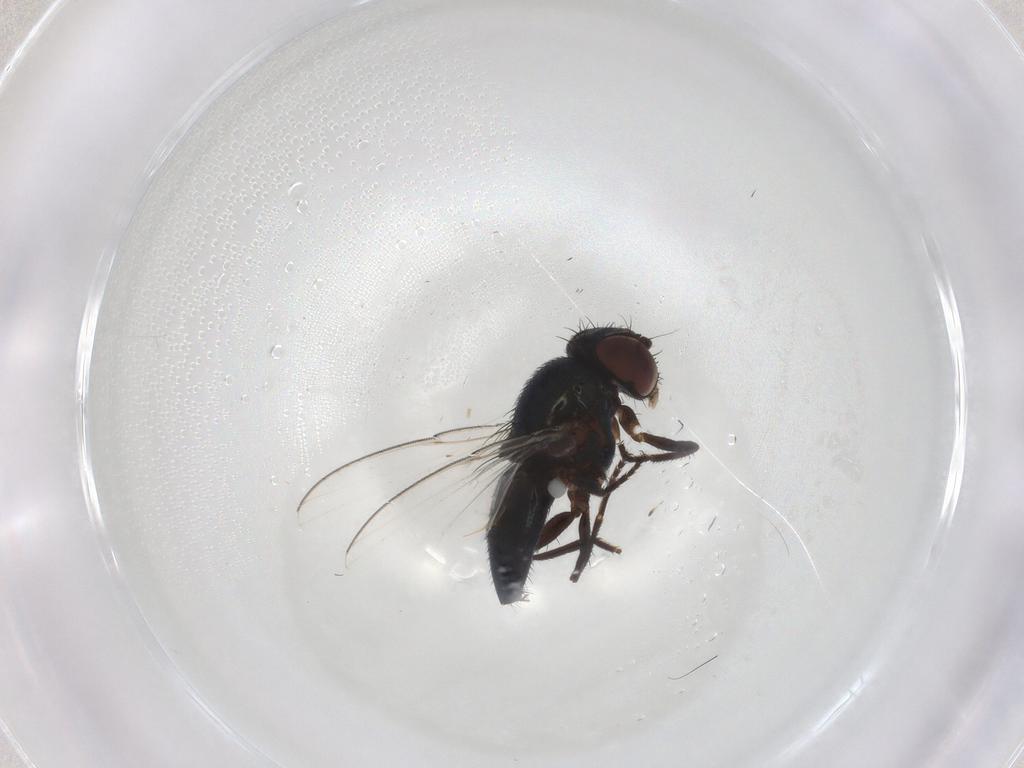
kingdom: Animalia
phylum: Arthropoda
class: Insecta
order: Diptera
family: Milichiidae
